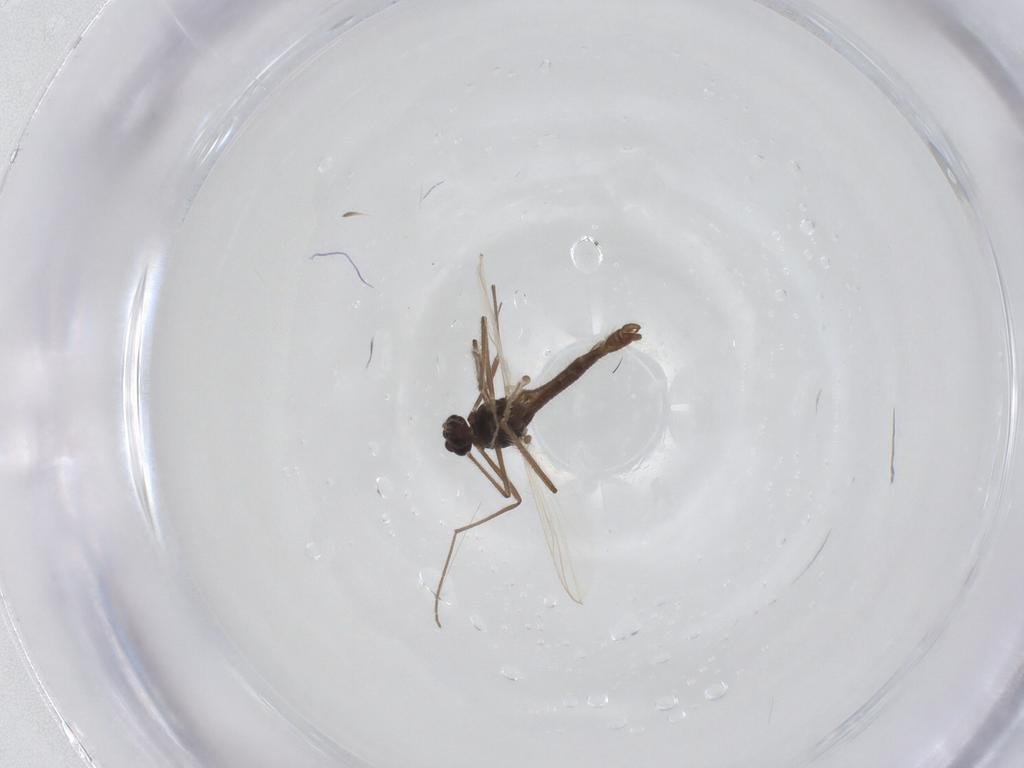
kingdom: Animalia
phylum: Arthropoda
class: Insecta
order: Diptera
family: Chironomidae
